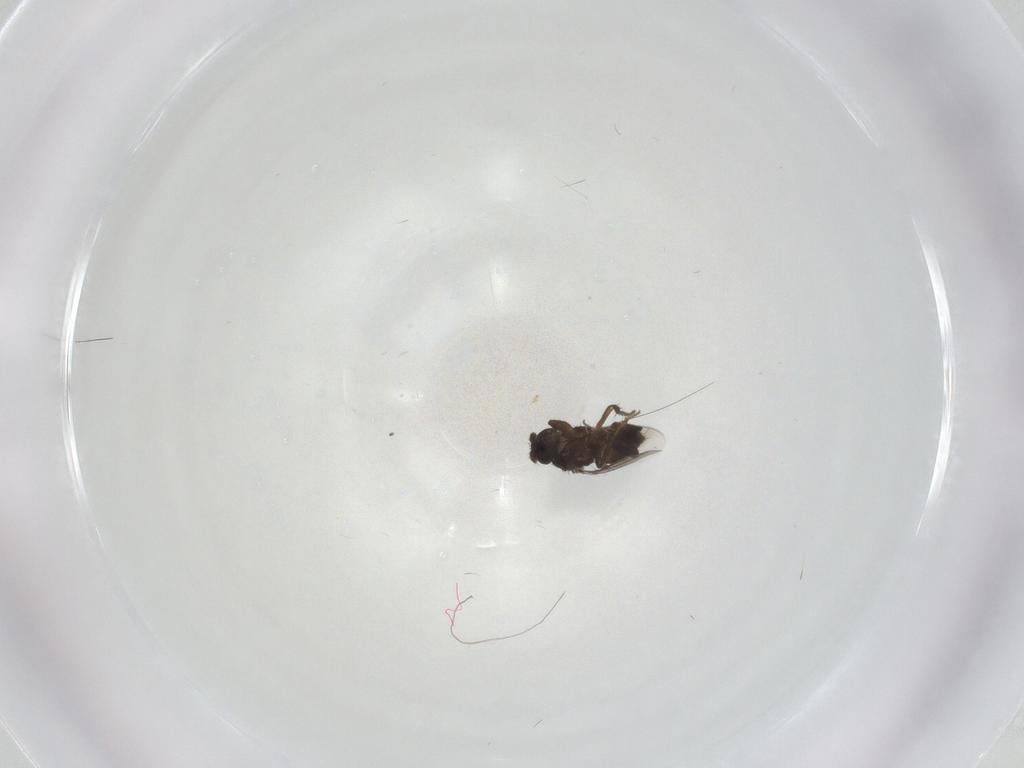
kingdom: Animalia
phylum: Arthropoda
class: Insecta
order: Diptera
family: Chironomidae
